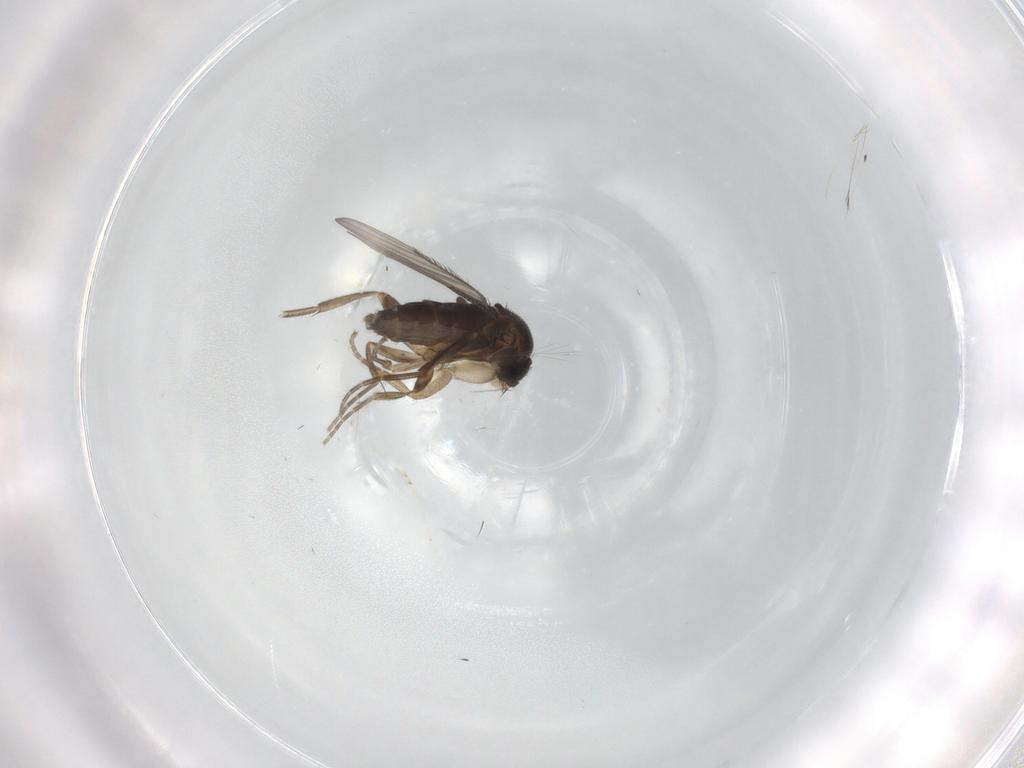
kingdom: Animalia
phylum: Arthropoda
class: Insecta
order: Diptera
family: Phoridae
